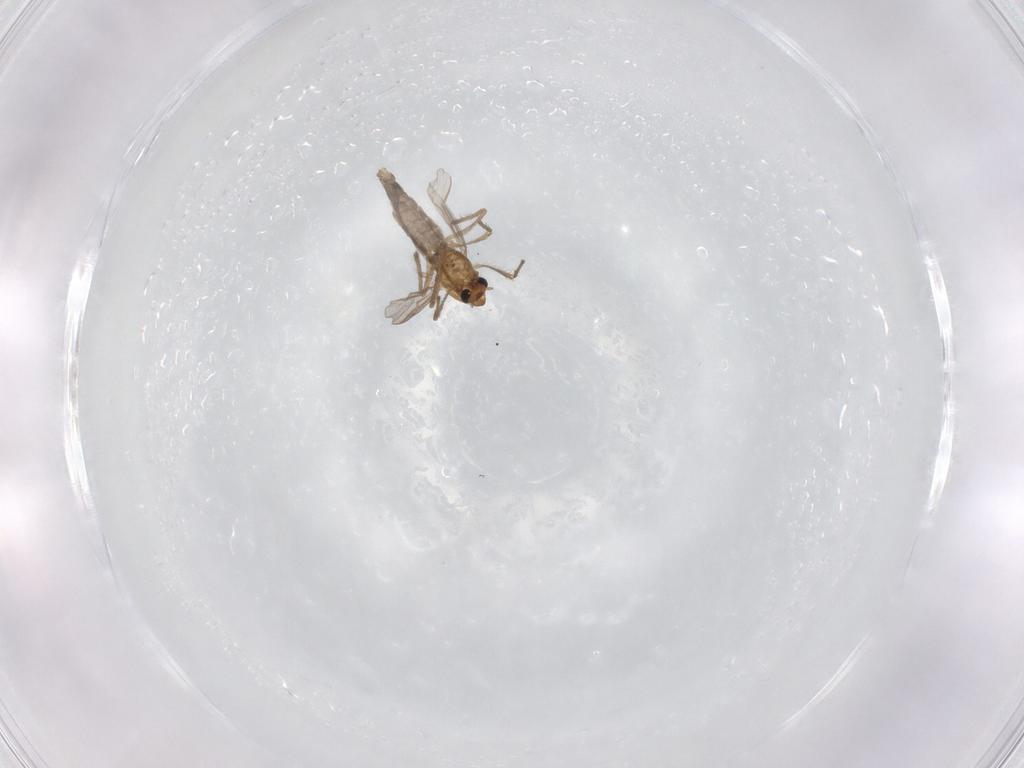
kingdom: Animalia
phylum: Arthropoda
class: Insecta
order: Diptera
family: Chironomidae
